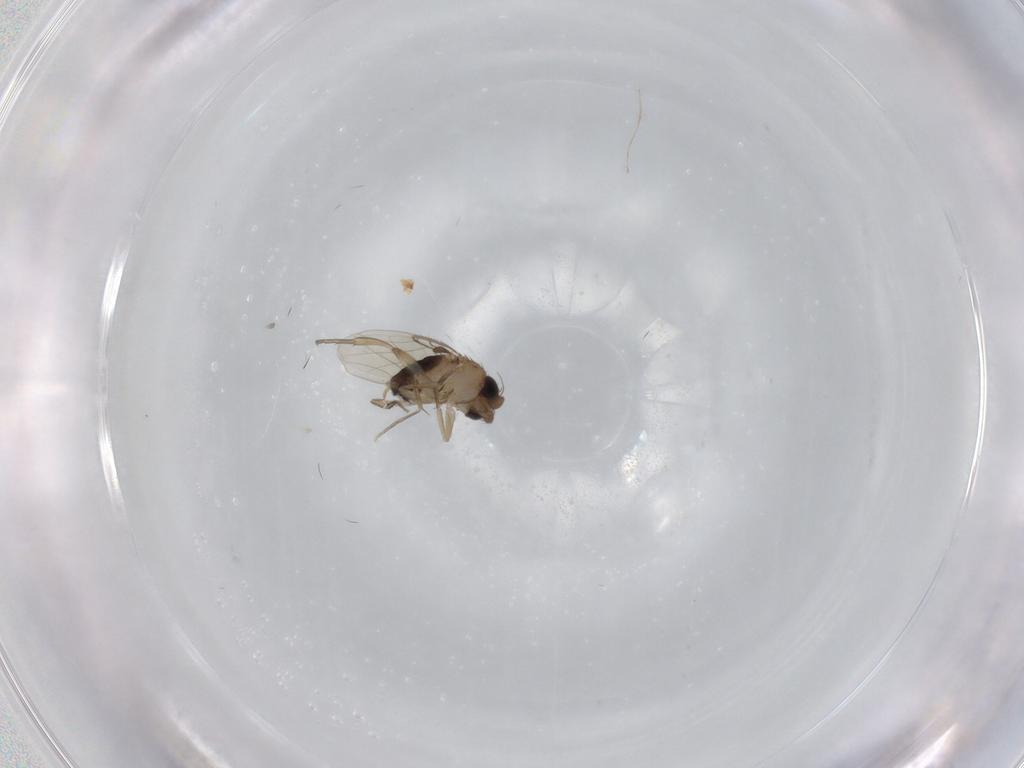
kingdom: Animalia
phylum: Arthropoda
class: Insecta
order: Diptera
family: Phoridae
